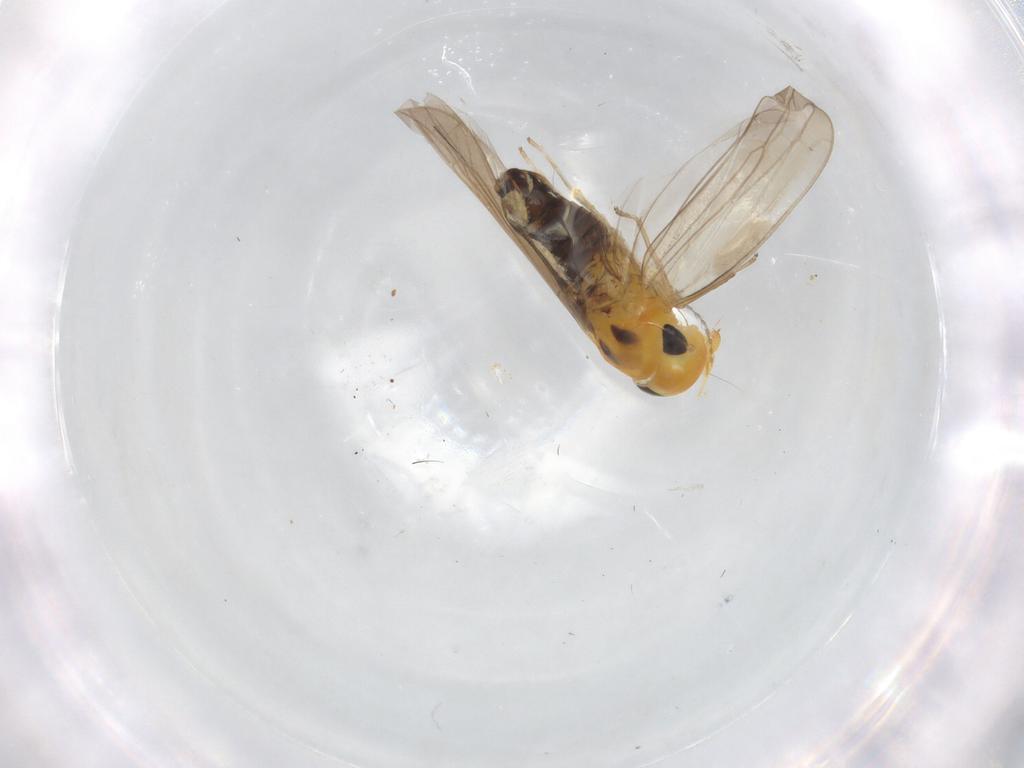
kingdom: Animalia
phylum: Arthropoda
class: Insecta
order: Hemiptera
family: Cicadellidae
